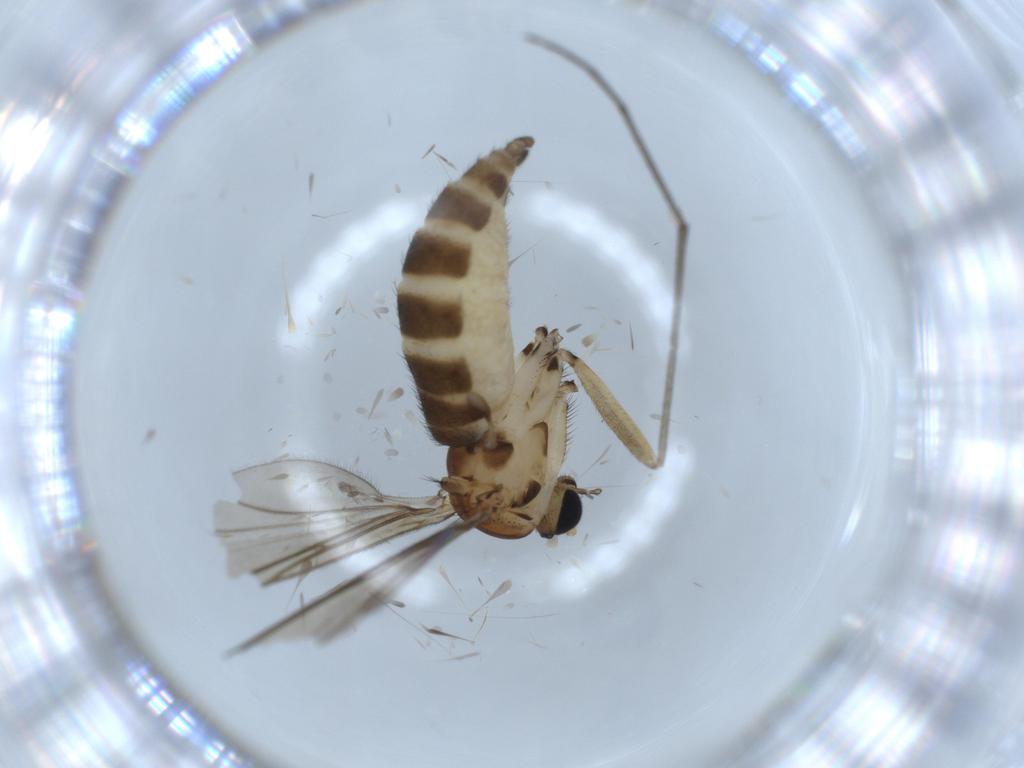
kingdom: Animalia
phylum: Arthropoda
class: Insecta
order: Diptera
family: Sciaridae
